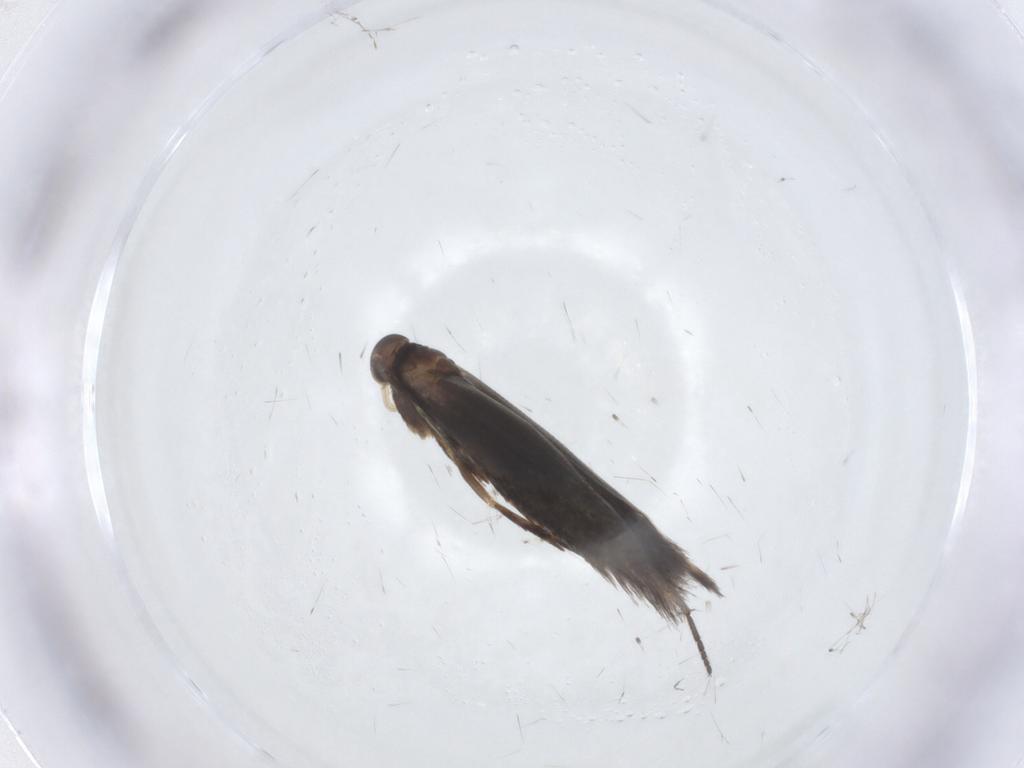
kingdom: Animalia
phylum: Arthropoda
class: Insecta
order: Lepidoptera
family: Elachistidae
